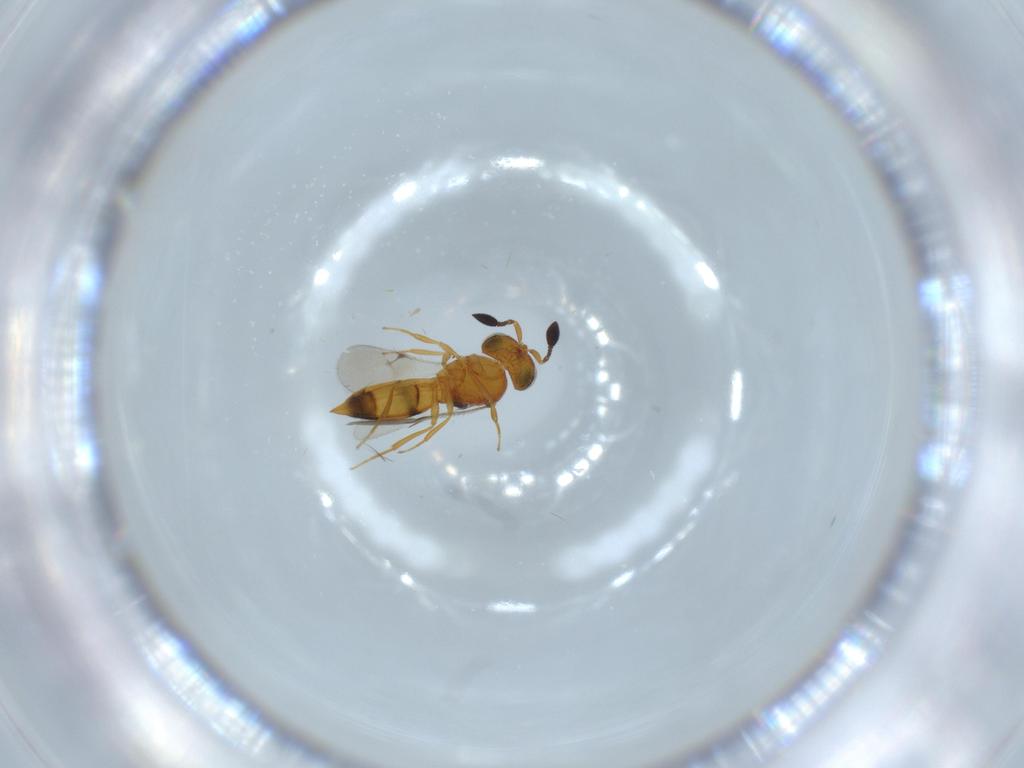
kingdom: Animalia
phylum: Arthropoda
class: Insecta
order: Hymenoptera
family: Scelionidae
